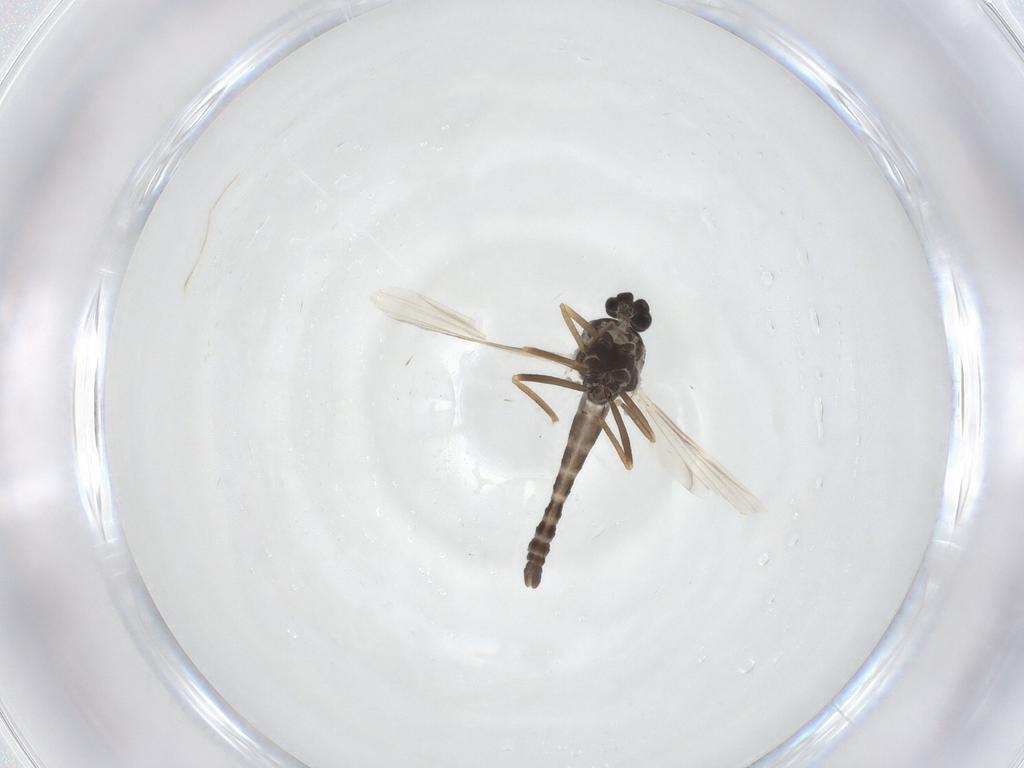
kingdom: Animalia
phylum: Arthropoda
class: Insecta
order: Diptera
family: Ceratopogonidae
